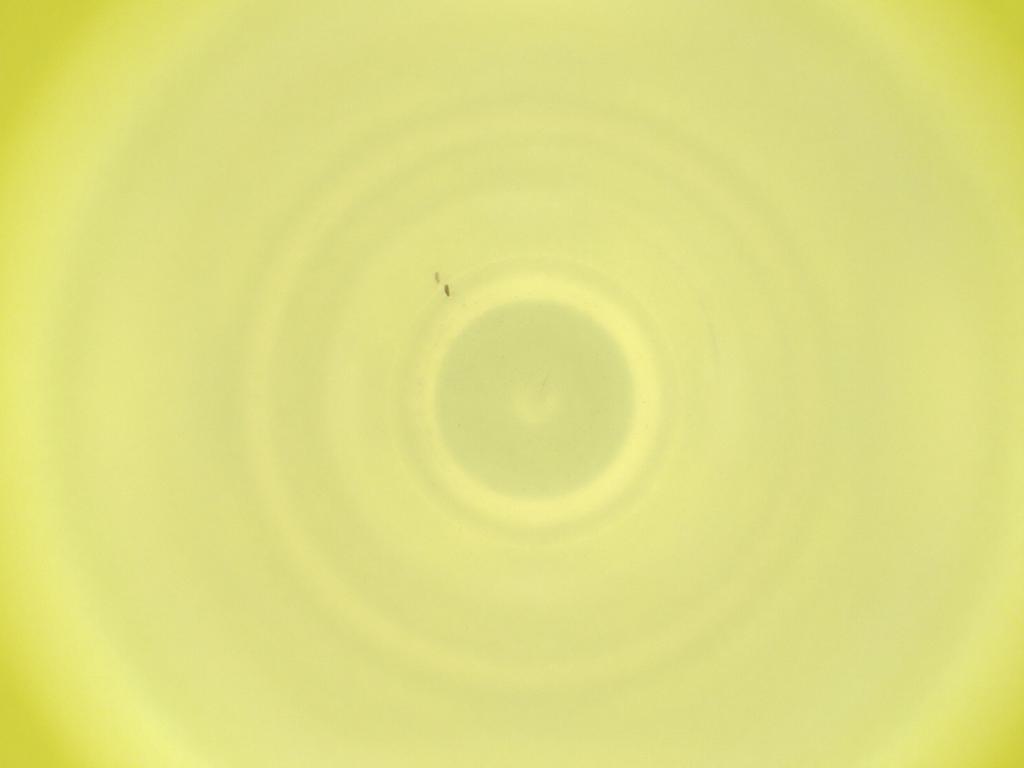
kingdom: Animalia
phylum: Arthropoda
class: Insecta
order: Diptera
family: Cecidomyiidae
